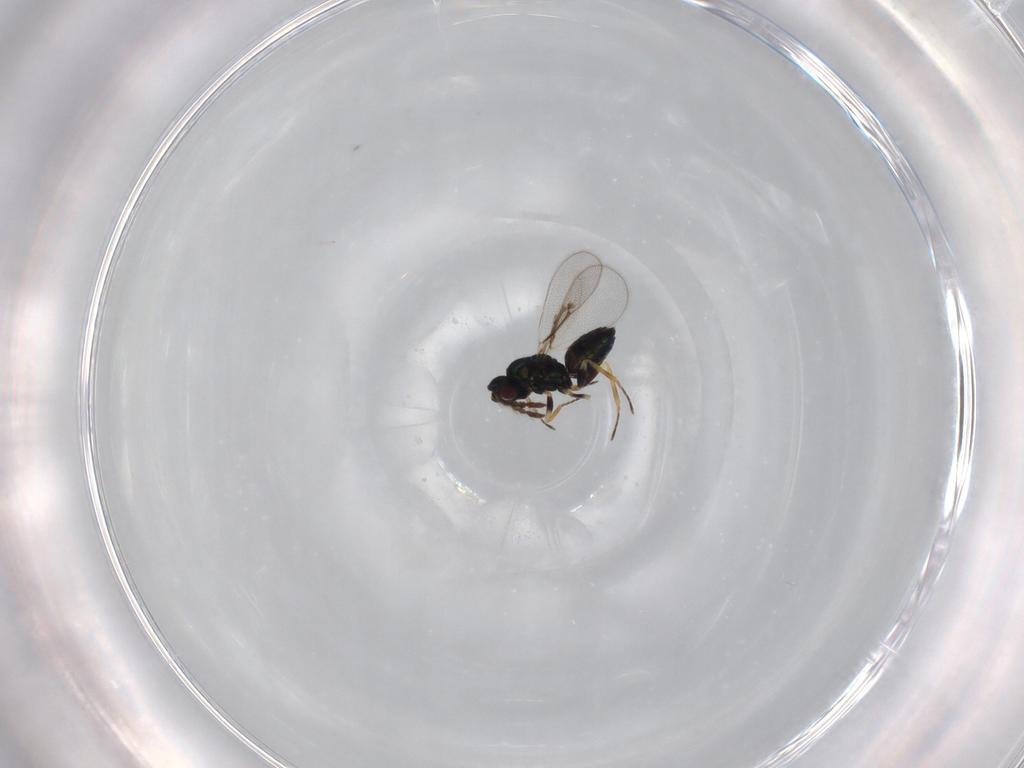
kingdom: Animalia
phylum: Arthropoda
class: Insecta
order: Hymenoptera
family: Eulophidae
